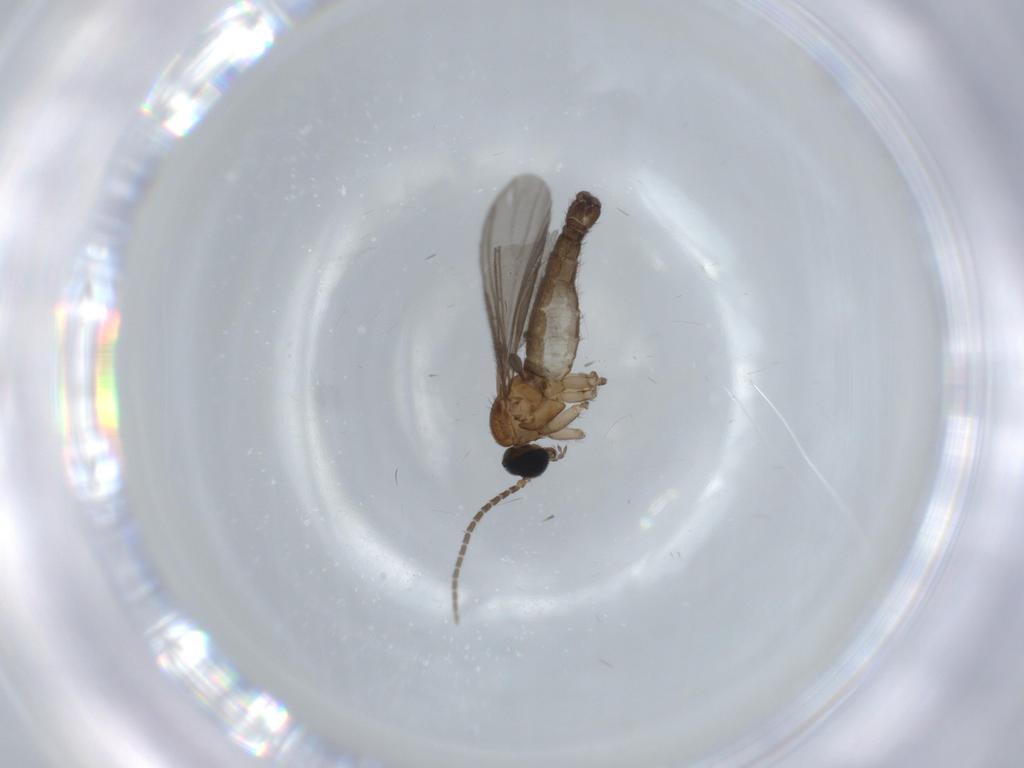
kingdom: Animalia
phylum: Arthropoda
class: Insecta
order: Diptera
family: Sciaridae
